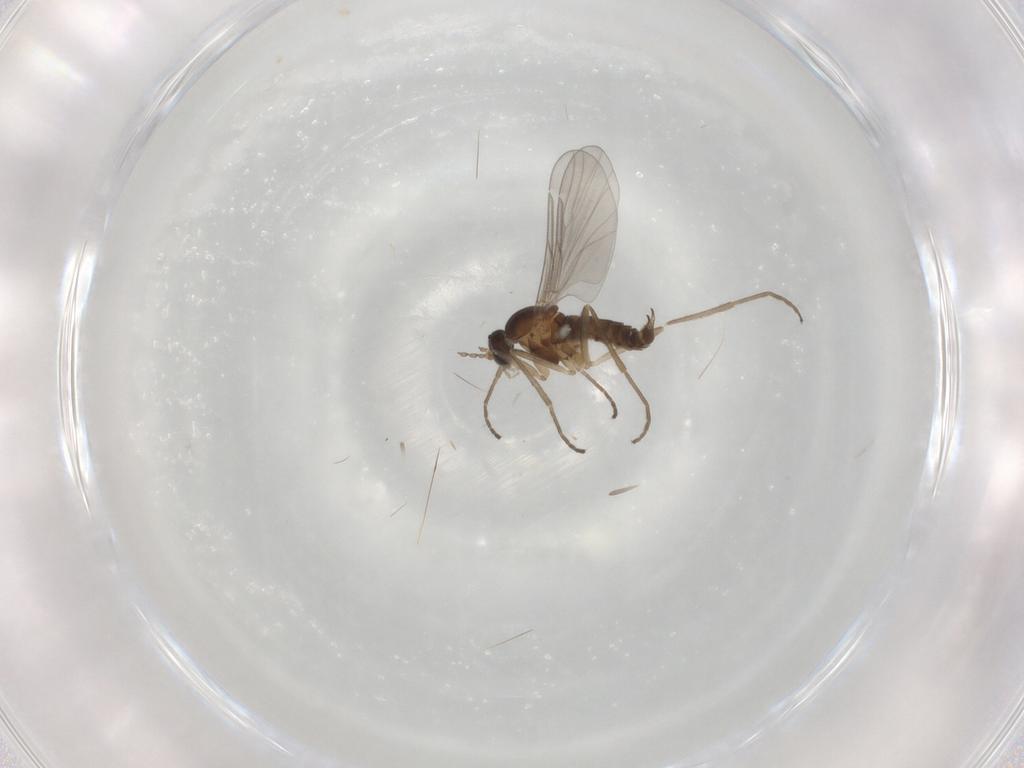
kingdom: Animalia
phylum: Arthropoda
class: Insecta
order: Diptera
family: Cecidomyiidae
